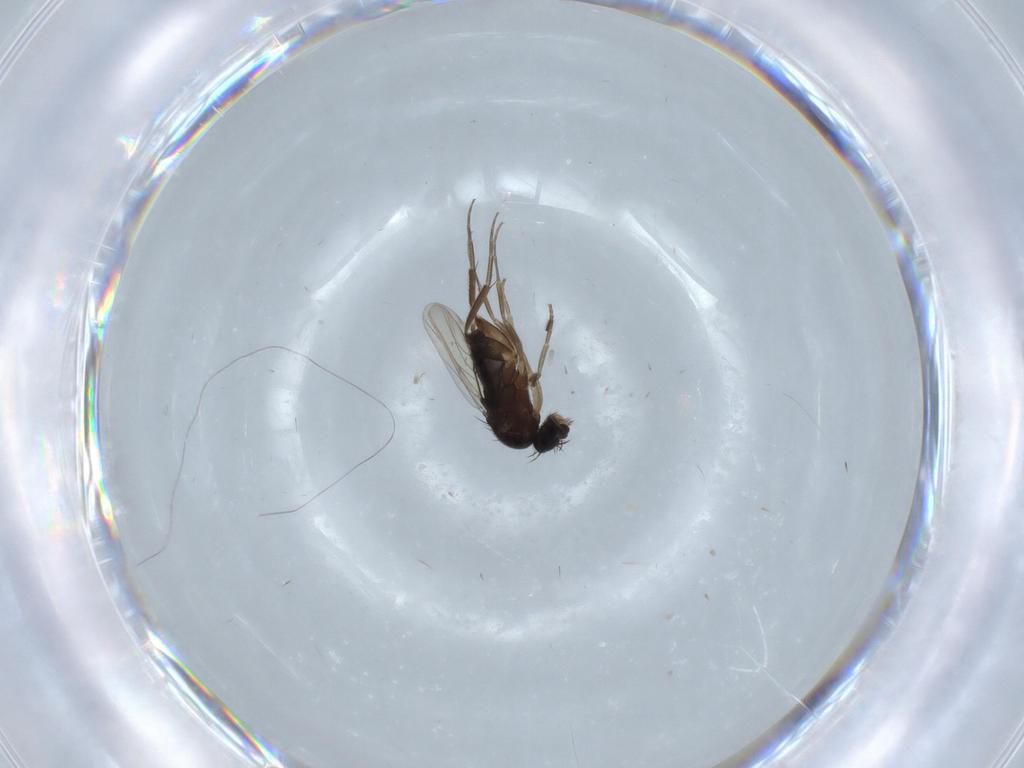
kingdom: Animalia
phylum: Arthropoda
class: Insecta
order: Diptera
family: Phoridae
